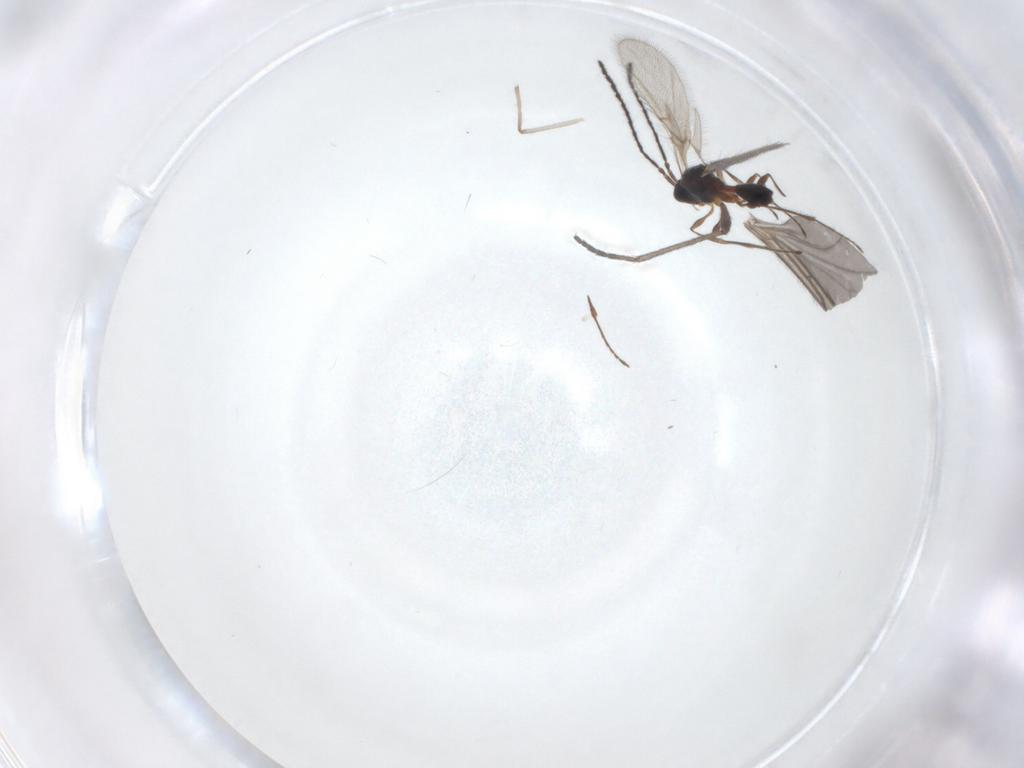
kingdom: Animalia
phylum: Arthropoda
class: Insecta
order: Hymenoptera
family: Diapriidae
